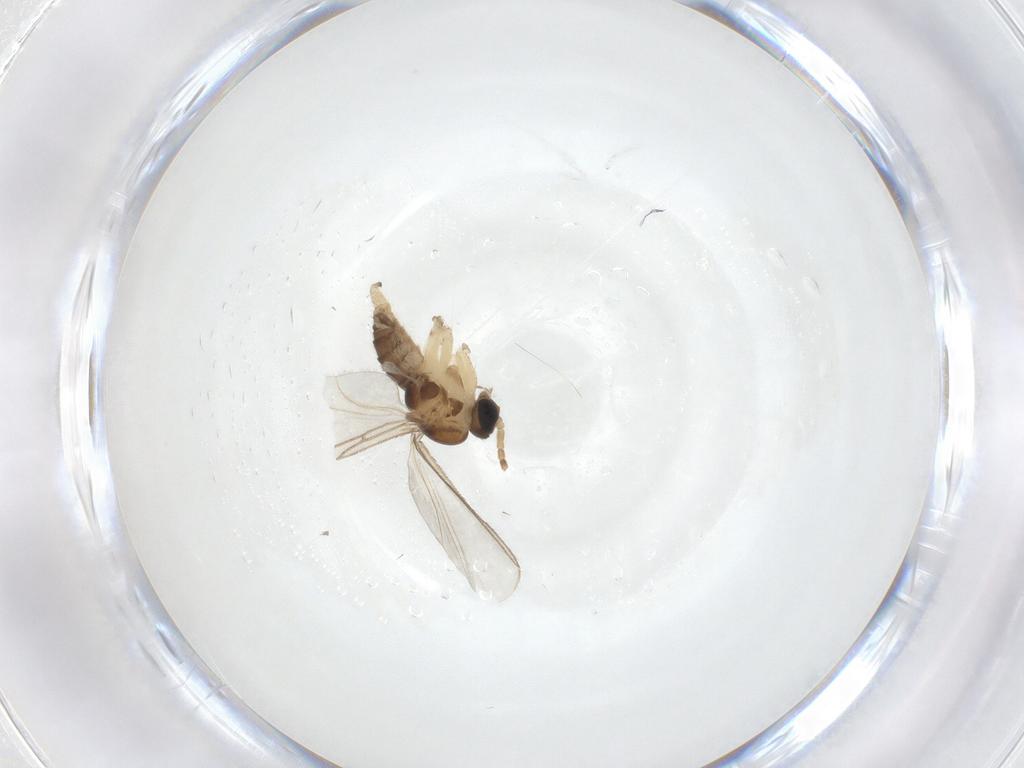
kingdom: Animalia
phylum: Arthropoda
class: Insecta
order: Diptera
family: Sciaridae
